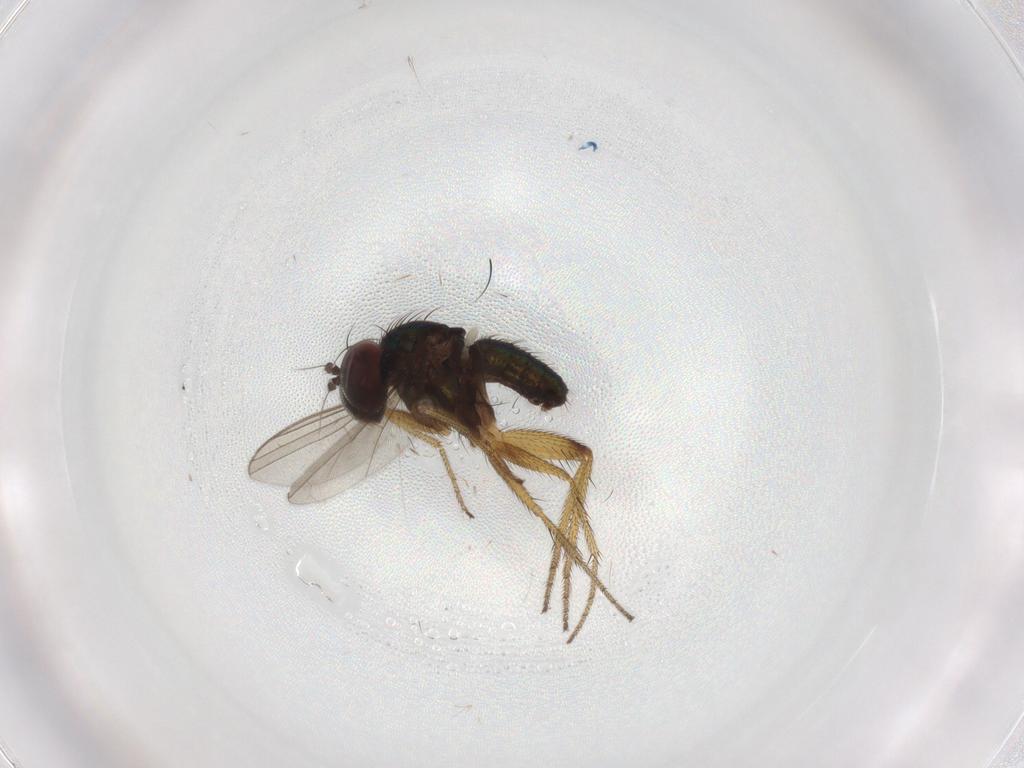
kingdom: Animalia
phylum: Arthropoda
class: Insecta
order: Diptera
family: Dolichopodidae
